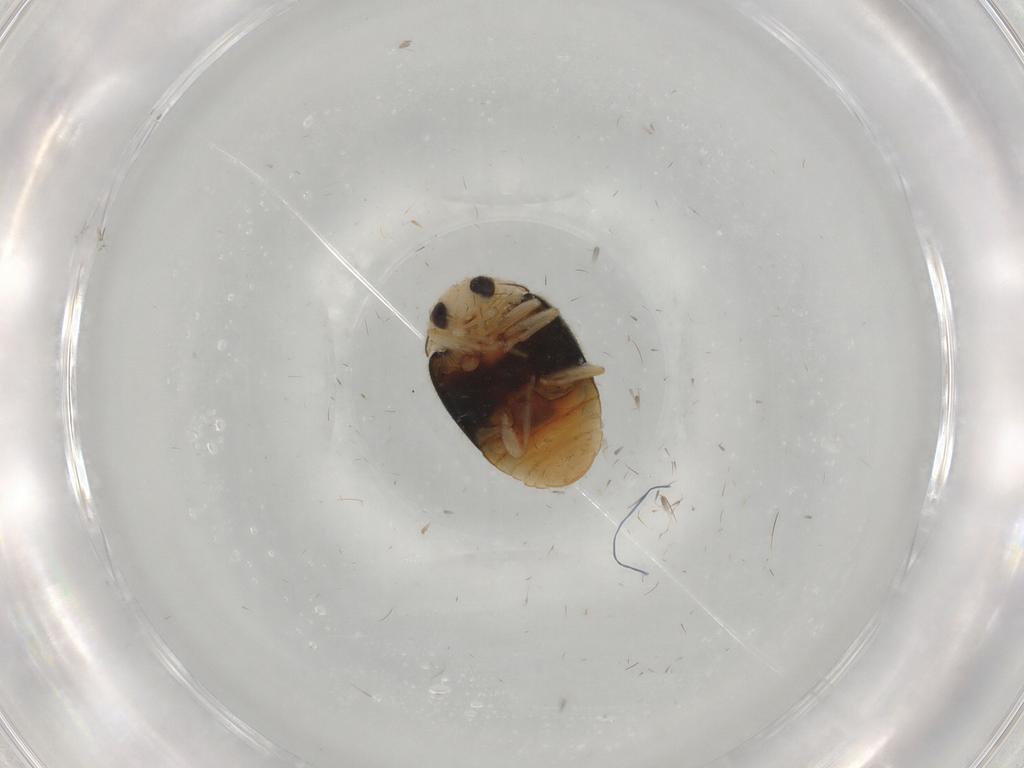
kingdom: Animalia
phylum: Arthropoda
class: Insecta
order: Coleoptera
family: Coccinellidae
